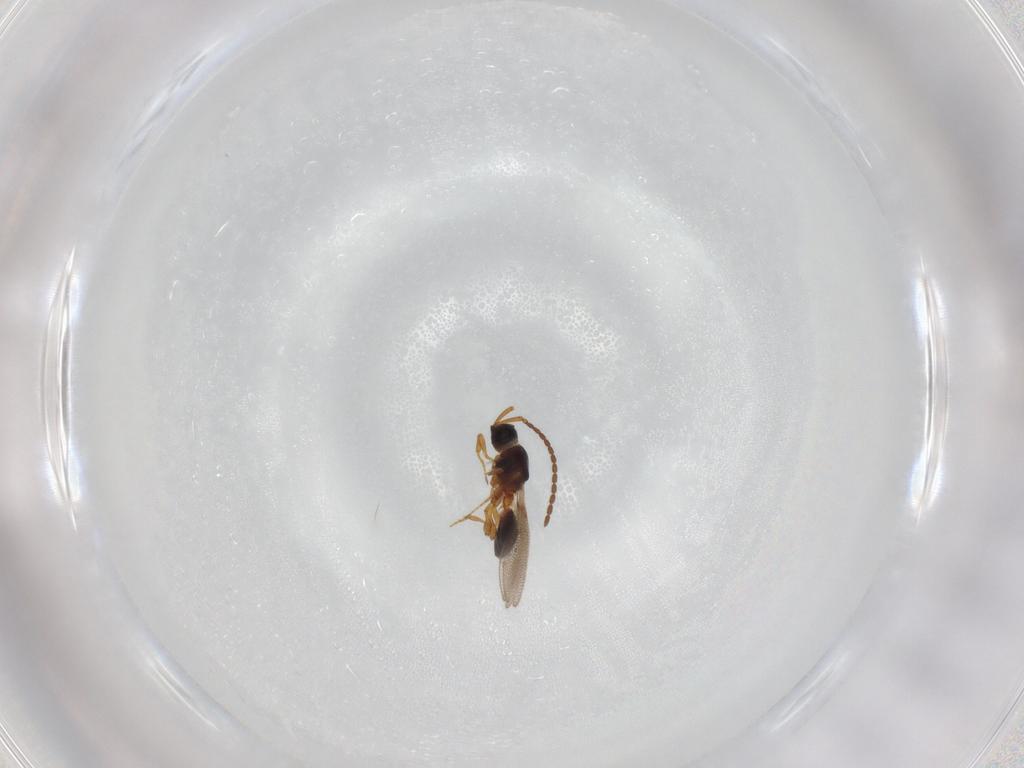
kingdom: Animalia
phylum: Arthropoda
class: Insecta
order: Hymenoptera
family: Diapriidae
